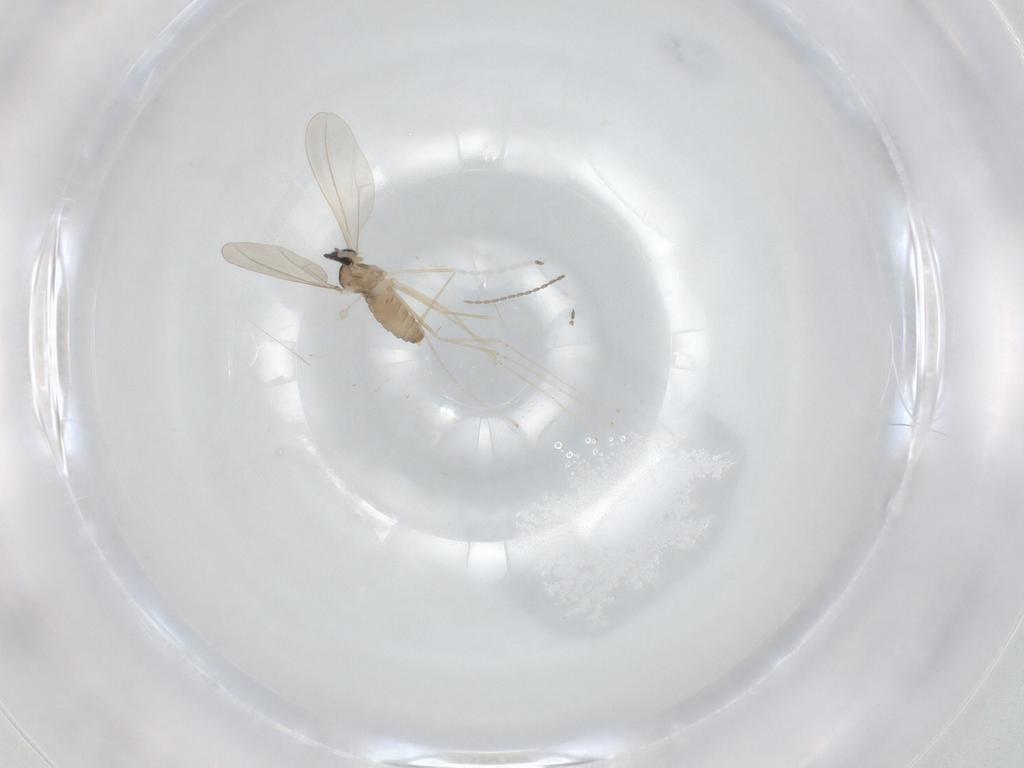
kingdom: Animalia
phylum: Arthropoda
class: Insecta
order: Diptera
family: Cecidomyiidae
